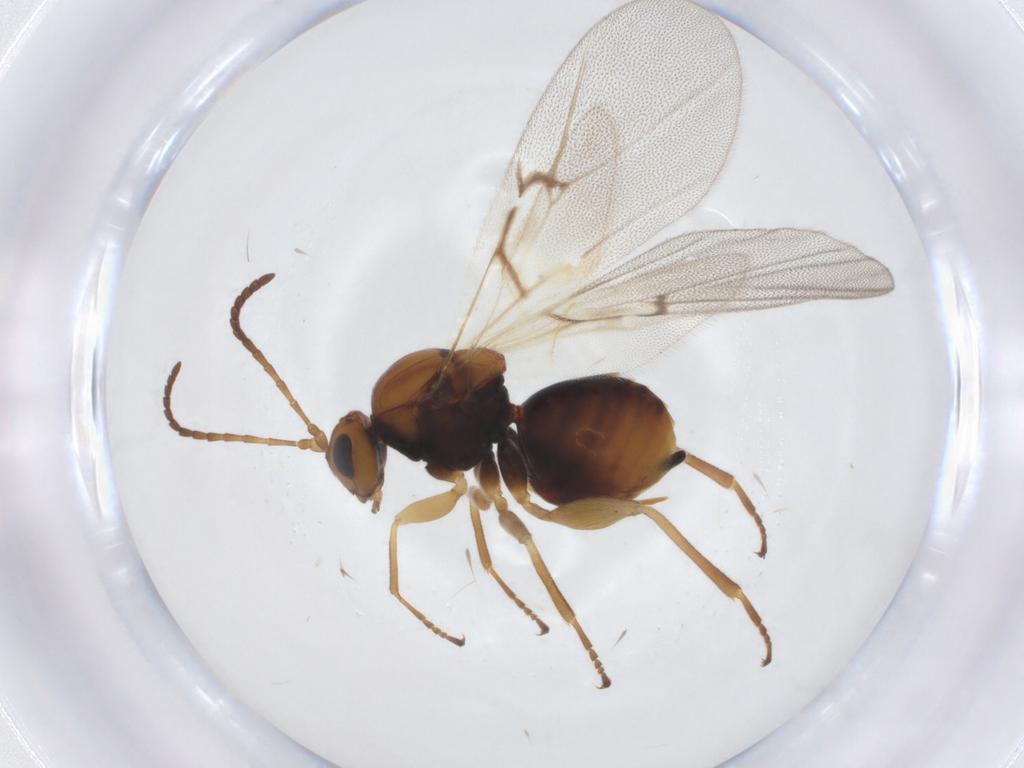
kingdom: Animalia
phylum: Arthropoda
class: Insecta
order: Hymenoptera
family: Cynipidae
